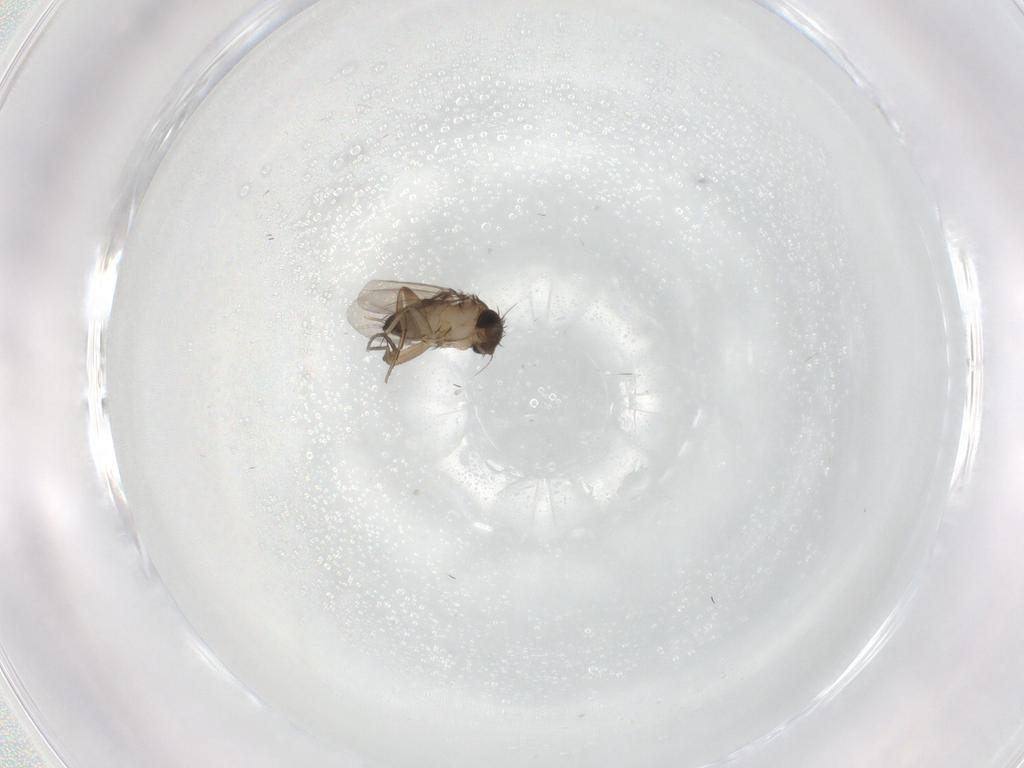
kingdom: Animalia
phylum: Arthropoda
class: Insecta
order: Diptera
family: Phoridae
